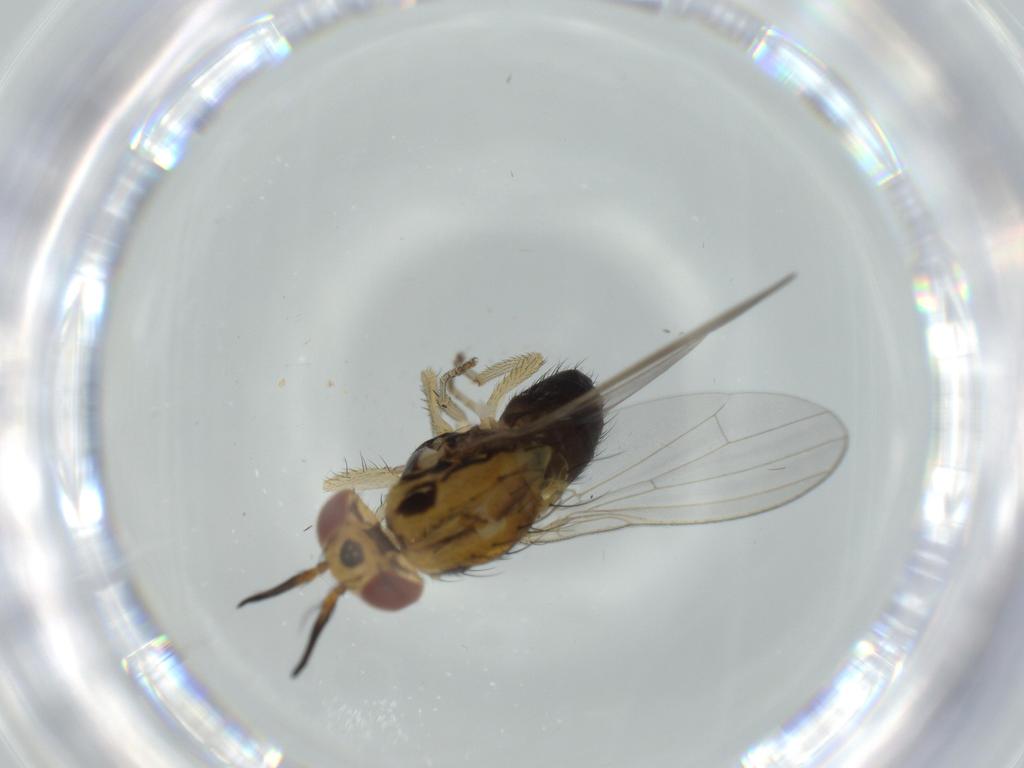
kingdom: Animalia
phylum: Arthropoda
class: Insecta
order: Diptera
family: Lauxaniidae
